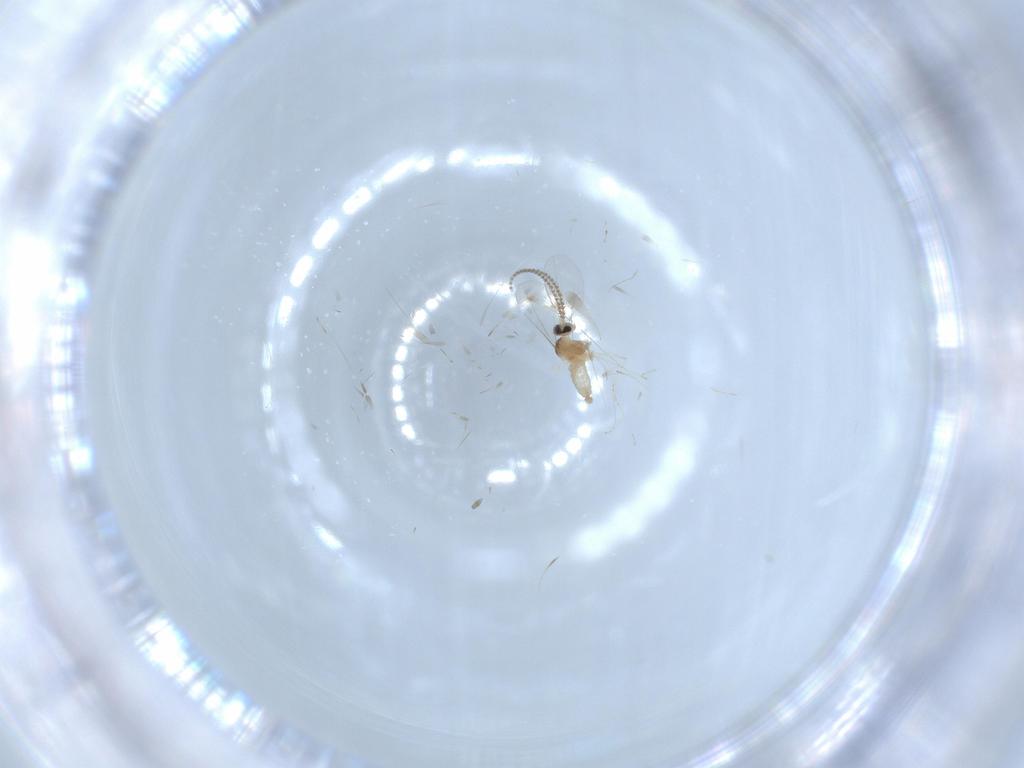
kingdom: Animalia
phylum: Arthropoda
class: Insecta
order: Diptera
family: Cecidomyiidae
